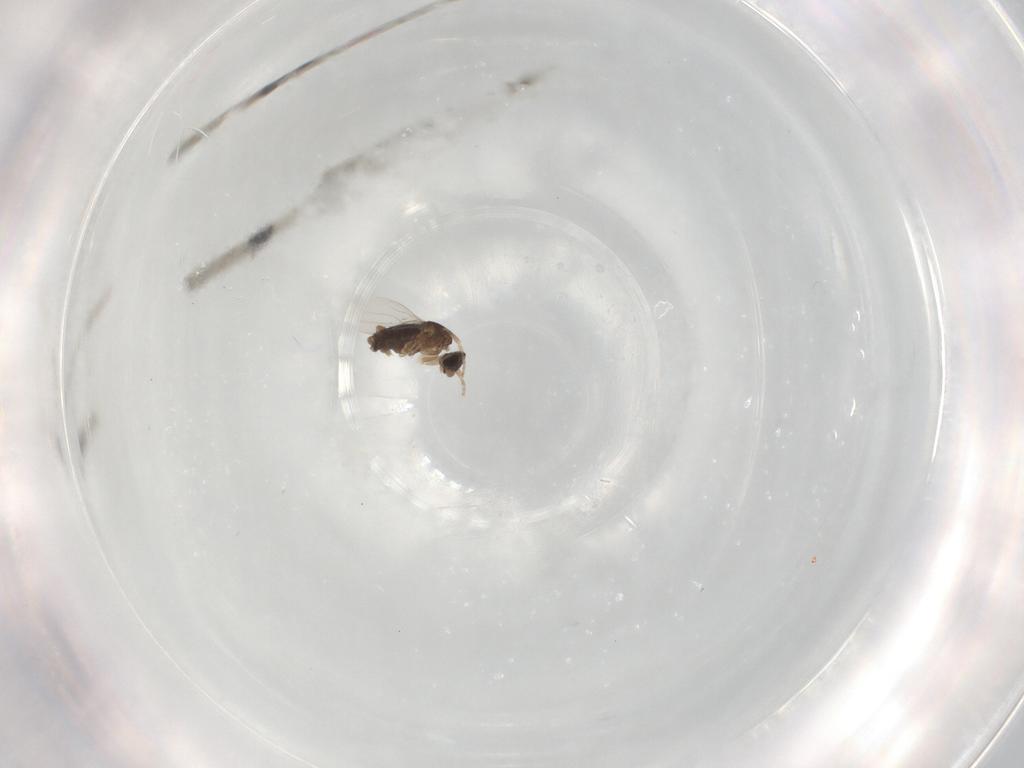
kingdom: Animalia
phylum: Arthropoda
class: Insecta
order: Diptera
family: Phoridae
